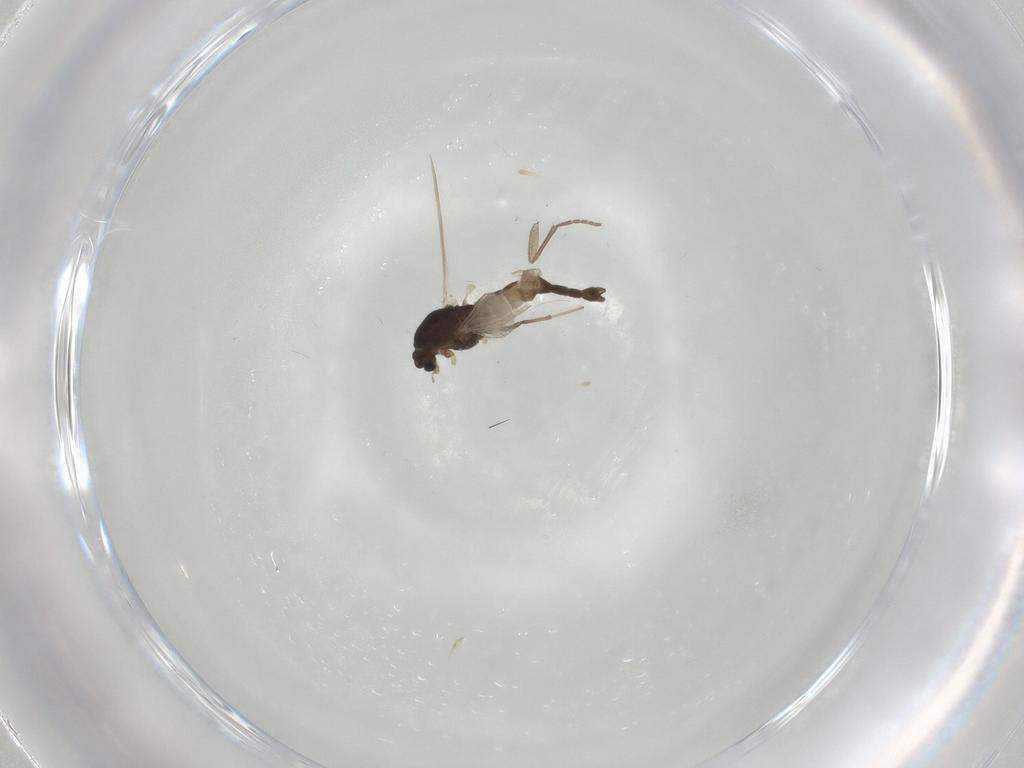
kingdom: Animalia
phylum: Arthropoda
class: Insecta
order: Diptera
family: Chironomidae
